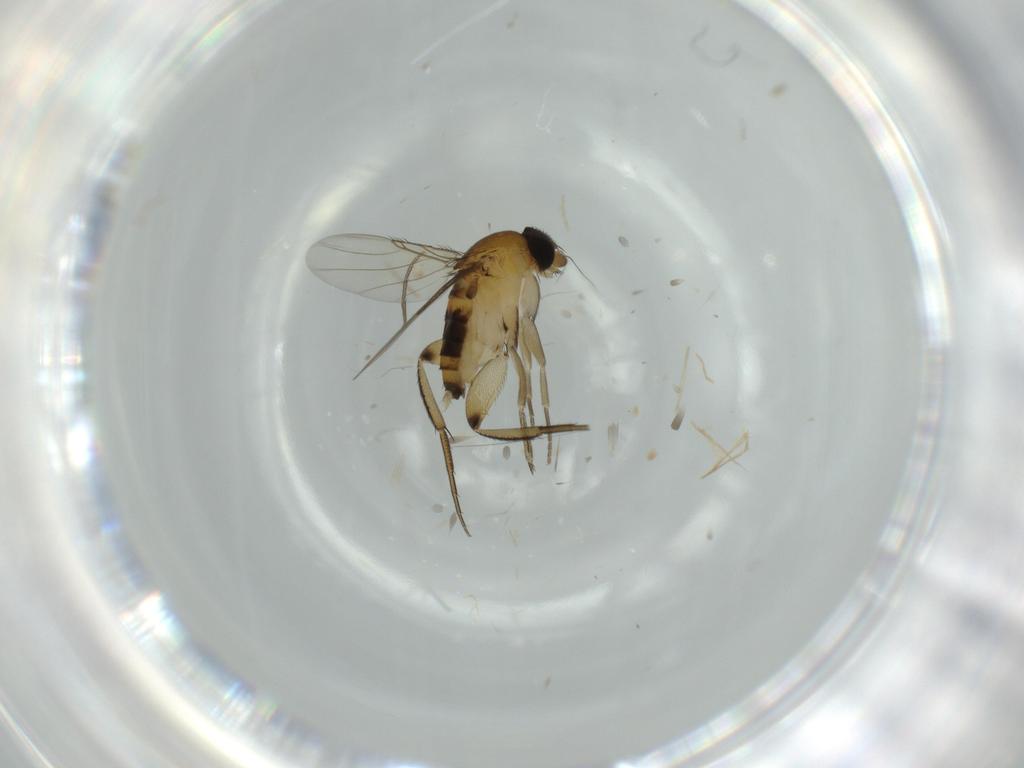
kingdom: Animalia
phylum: Arthropoda
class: Insecta
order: Diptera
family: Phoridae
